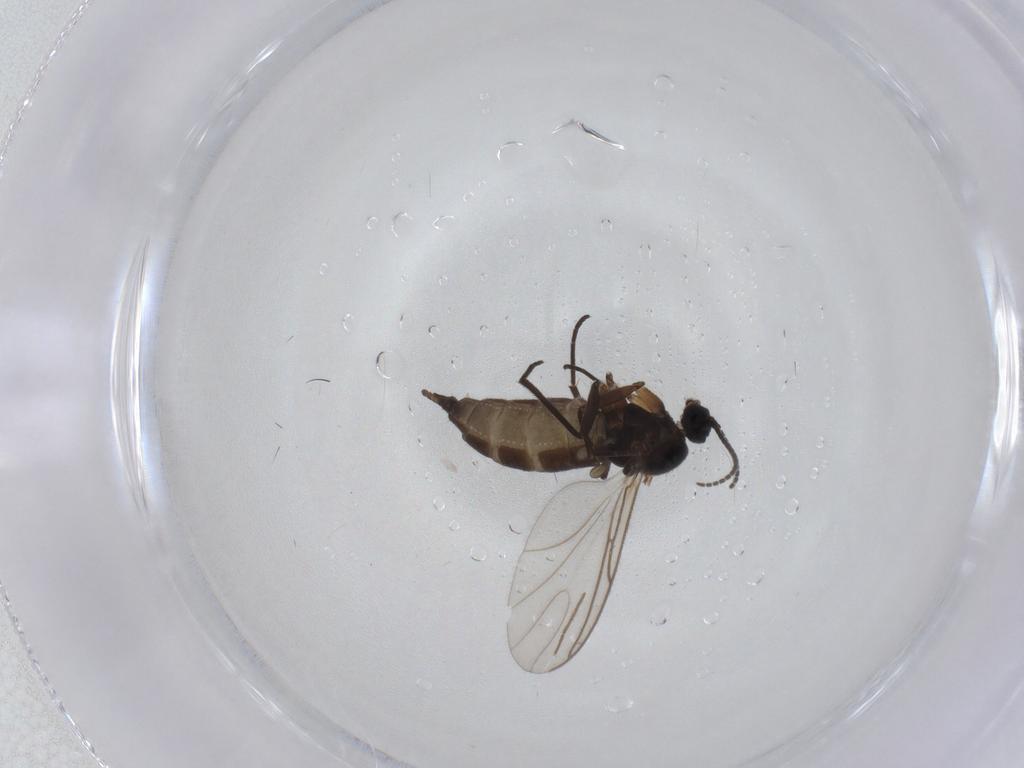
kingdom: Animalia
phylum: Arthropoda
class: Insecta
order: Diptera
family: Sciaridae
